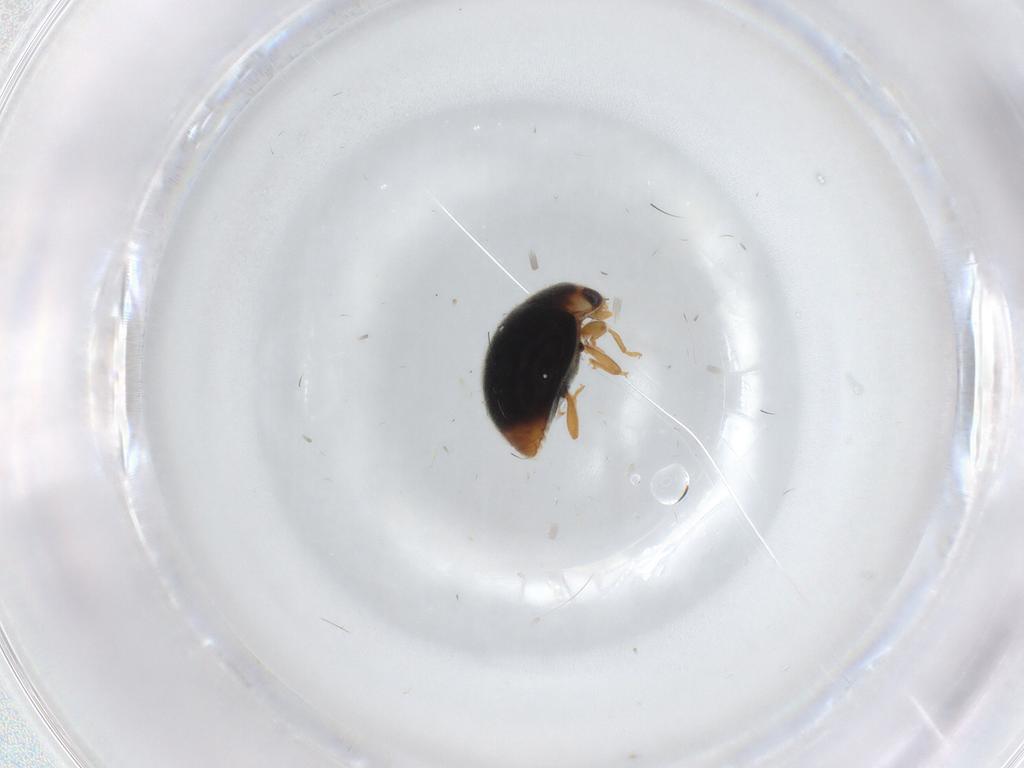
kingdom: Animalia
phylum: Arthropoda
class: Insecta
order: Coleoptera
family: Coccinellidae
